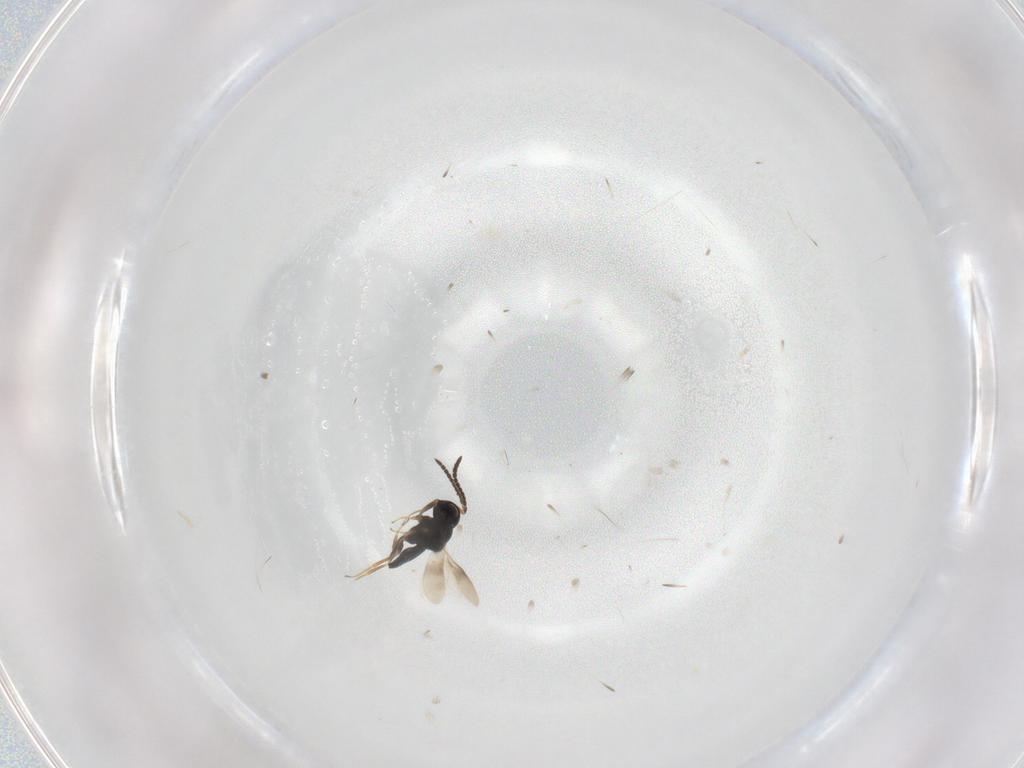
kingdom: Animalia
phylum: Arthropoda
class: Insecta
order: Hymenoptera
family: Scelionidae
